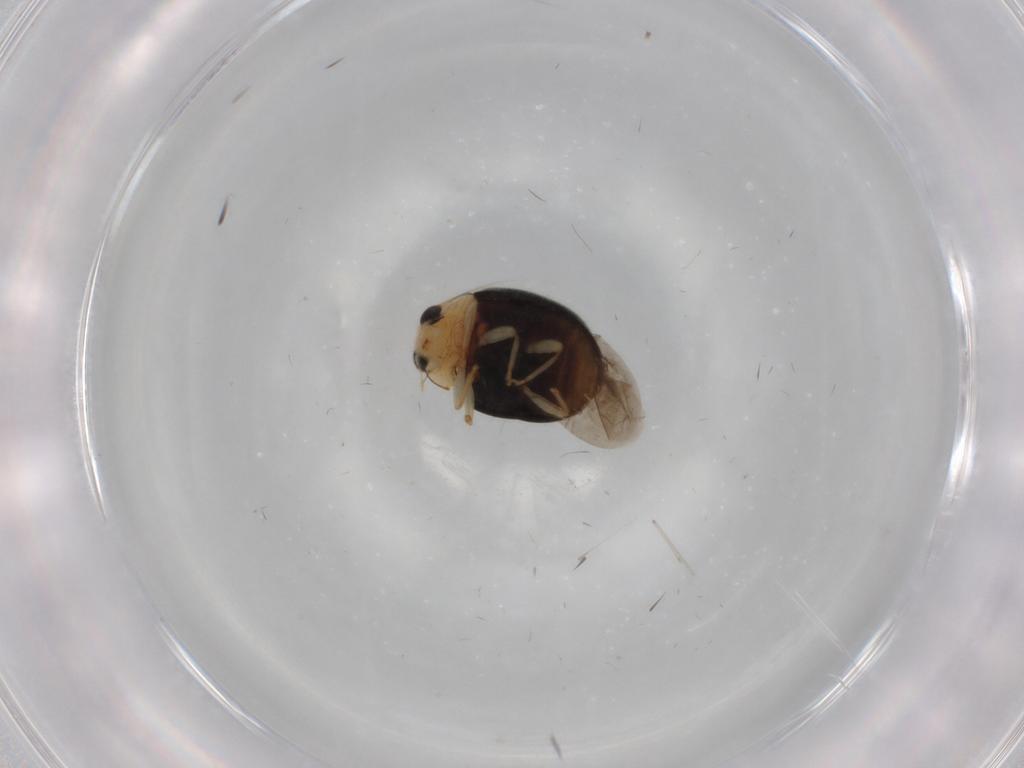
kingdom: Animalia
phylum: Arthropoda
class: Insecta
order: Coleoptera
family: Coccinellidae
